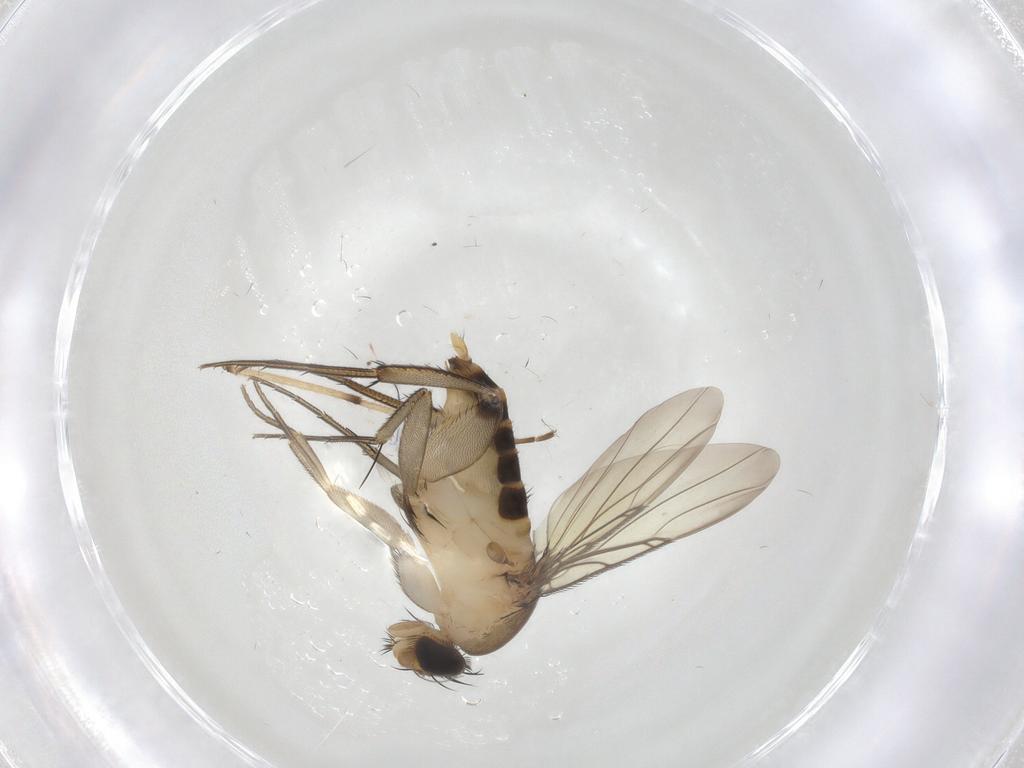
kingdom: Animalia
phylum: Arthropoda
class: Insecta
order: Diptera
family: Phoridae
